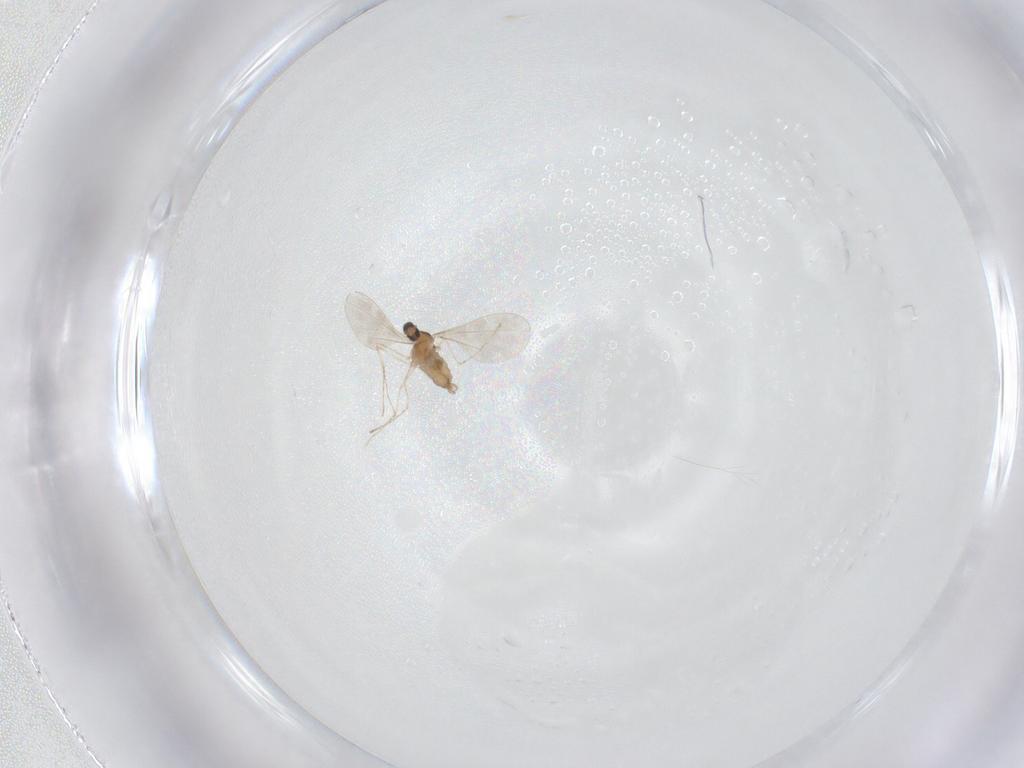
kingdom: Animalia
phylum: Arthropoda
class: Insecta
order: Diptera
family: Cecidomyiidae
